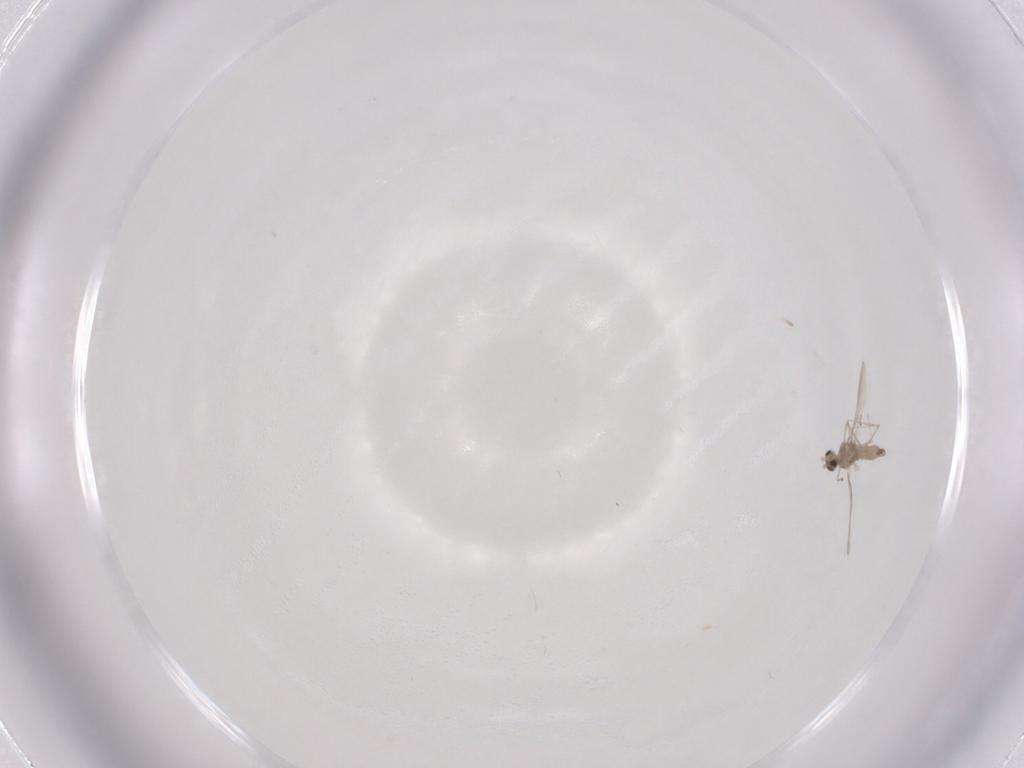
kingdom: Animalia
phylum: Arthropoda
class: Insecta
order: Diptera
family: Cecidomyiidae
